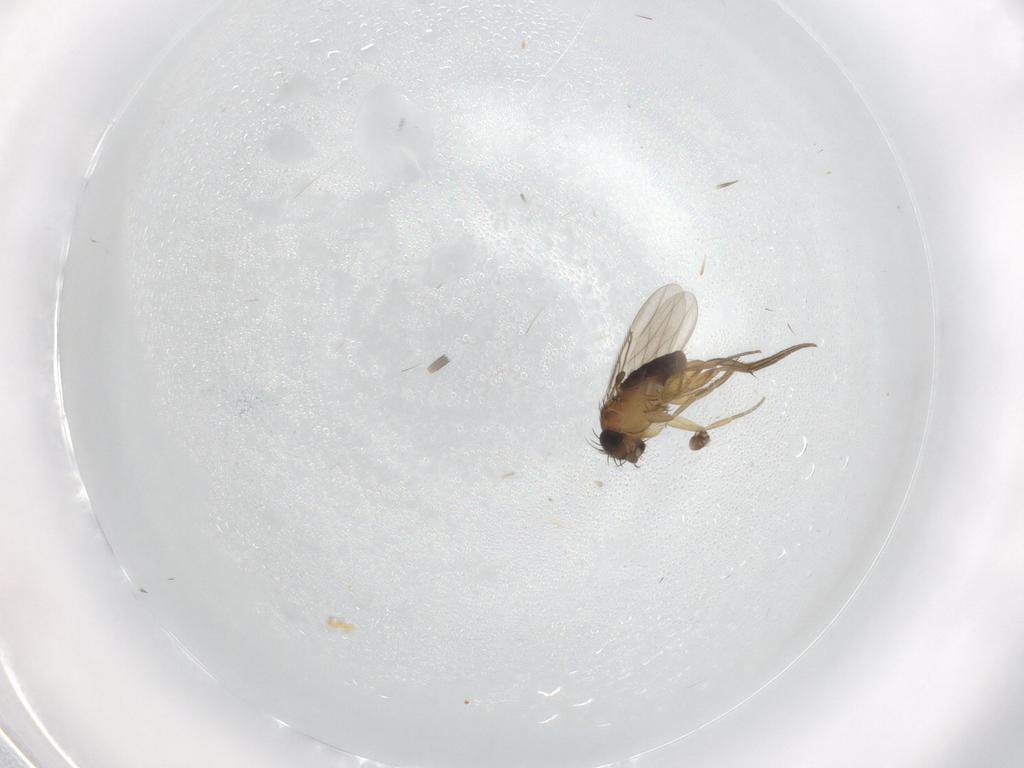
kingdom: Animalia
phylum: Arthropoda
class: Insecta
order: Diptera
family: Phoridae
